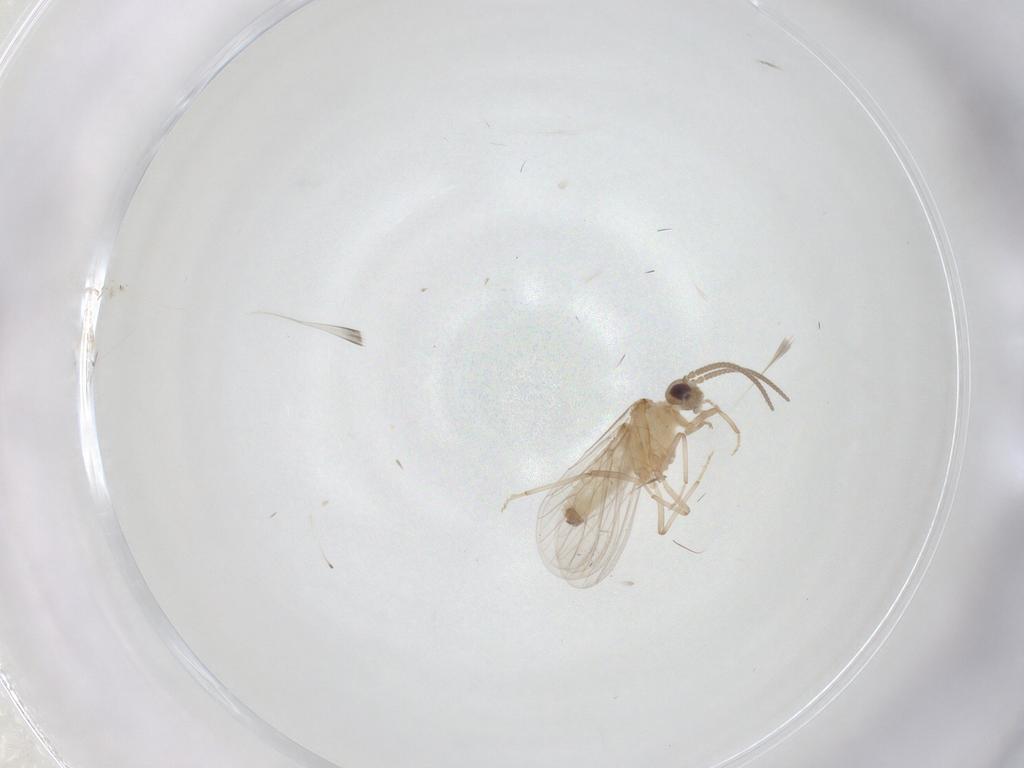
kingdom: Animalia
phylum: Arthropoda
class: Insecta
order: Neuroptera
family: Coniopterygidae
